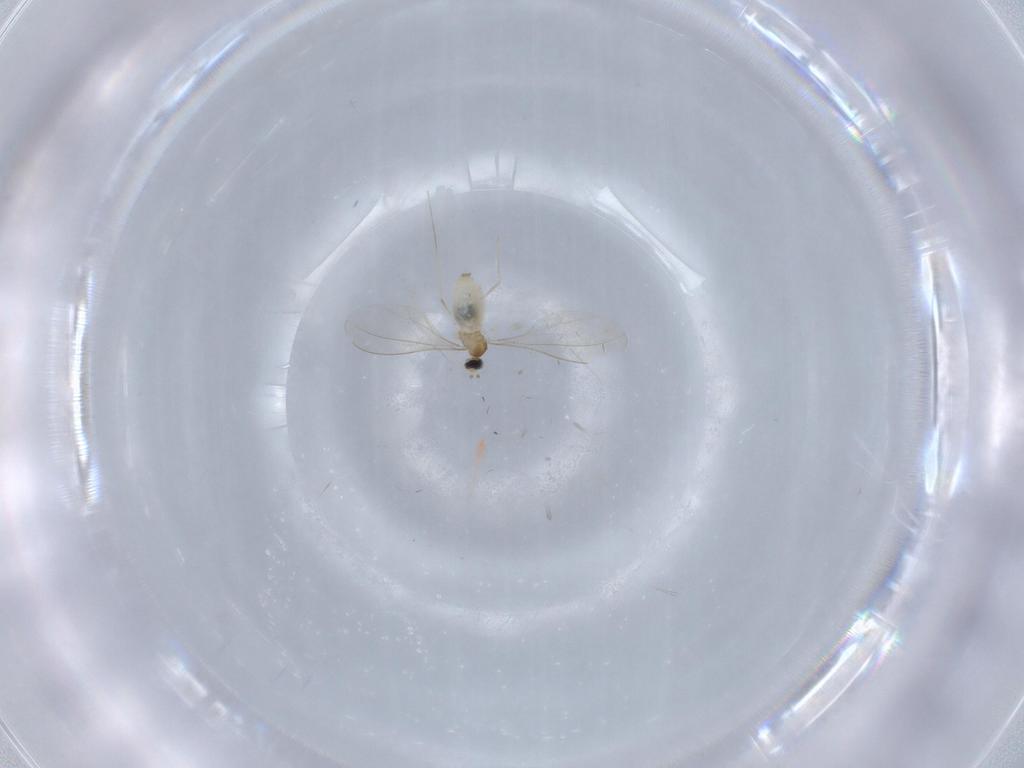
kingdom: Animalia
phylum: Arthropoda
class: Insecta
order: Diptera
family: Cecidomyiidae
